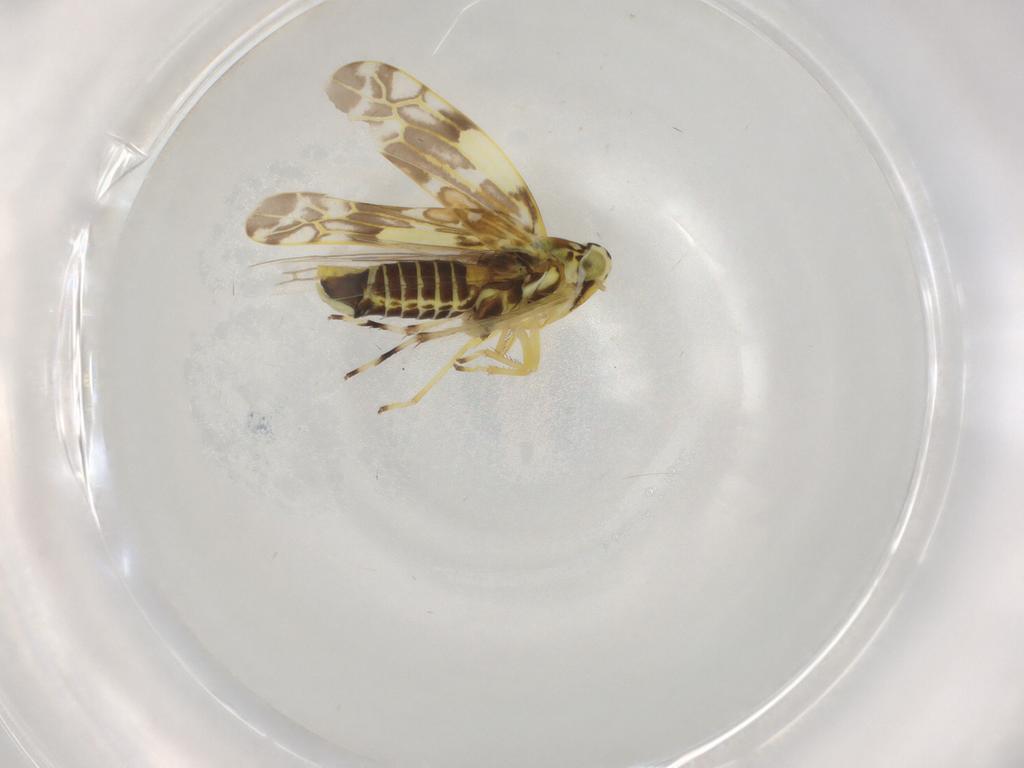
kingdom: Animalia
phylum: Arthropoda
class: Insecta
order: Hemiptera
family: Cicadellidae
